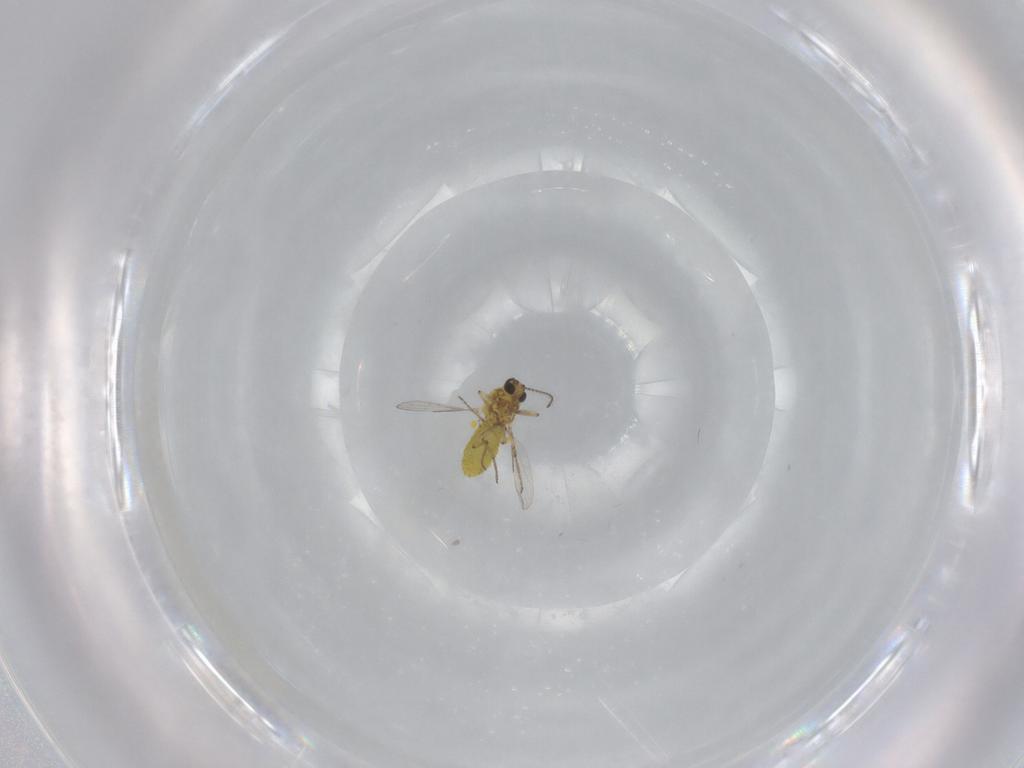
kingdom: Animalia
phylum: Arthropoda
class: Insecta
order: Diptera
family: Ceratopogonidae
